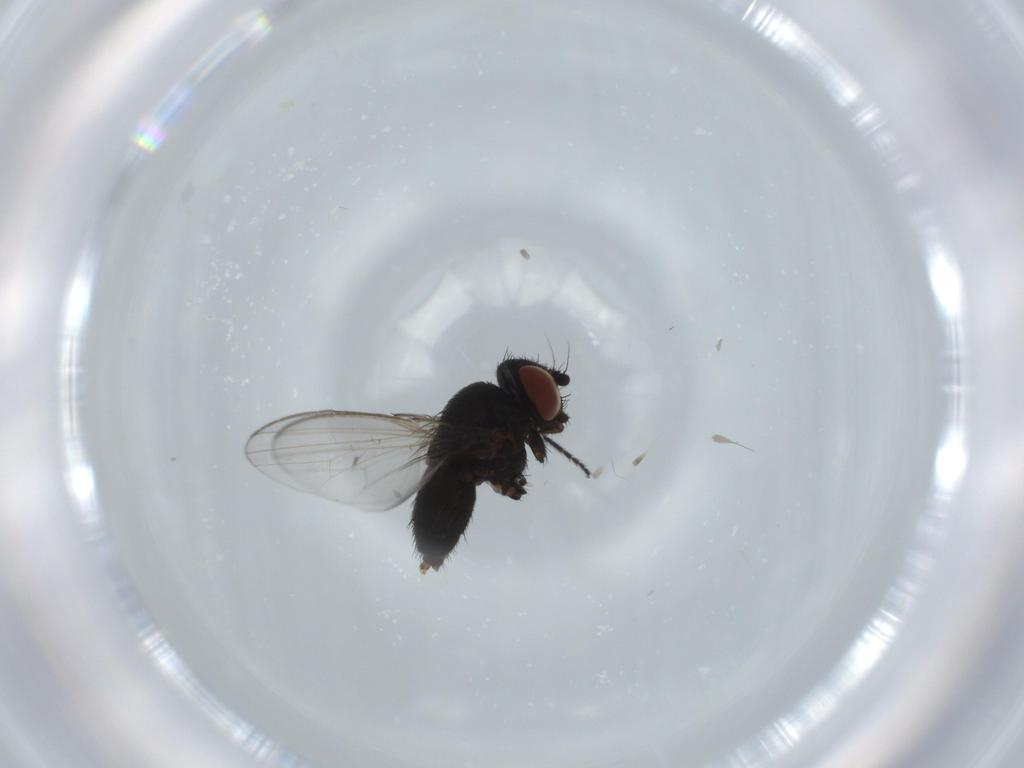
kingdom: Animalia
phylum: Arthropoda
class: Insecta
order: Diptera
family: Milichiidae
